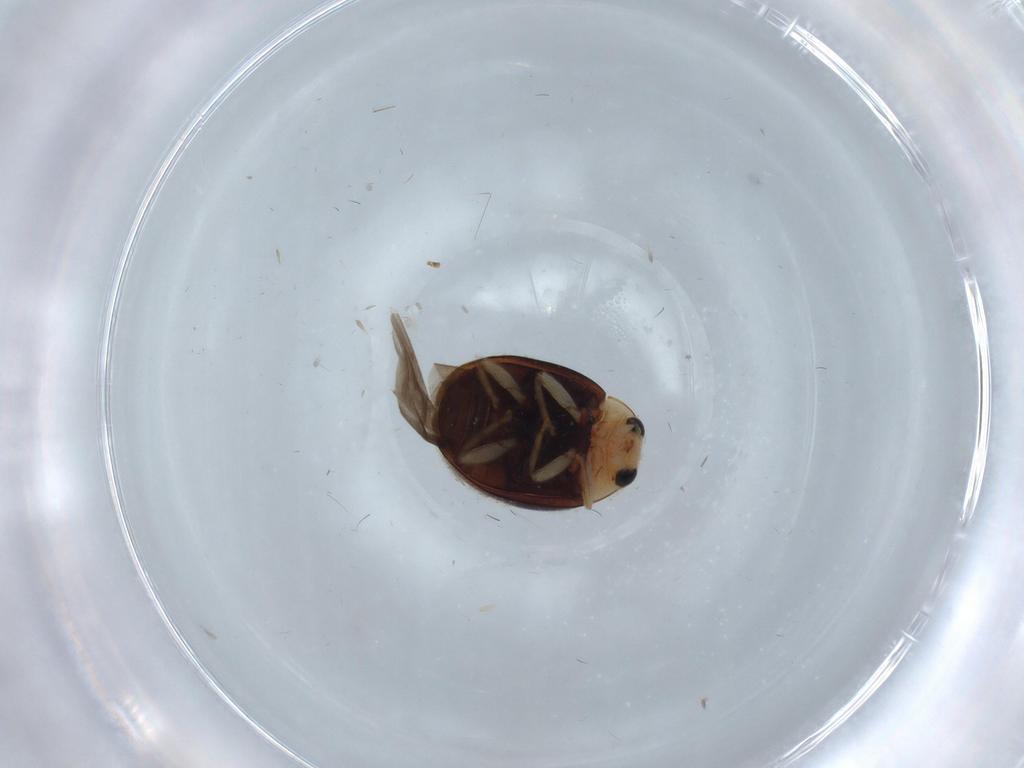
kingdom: Animalia
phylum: Arthropoda
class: Insecta
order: Coleoptera
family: Coccinellidae
